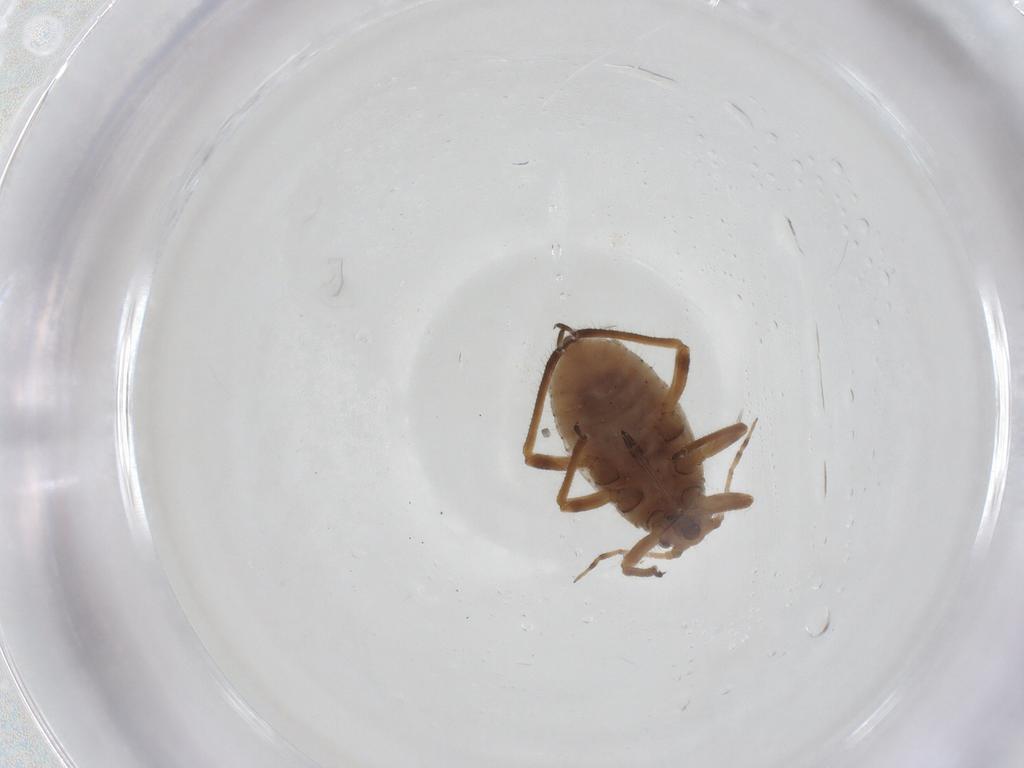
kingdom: Animalia
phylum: Arthropoda
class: Insecta
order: Hemiptera
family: Aphididae
